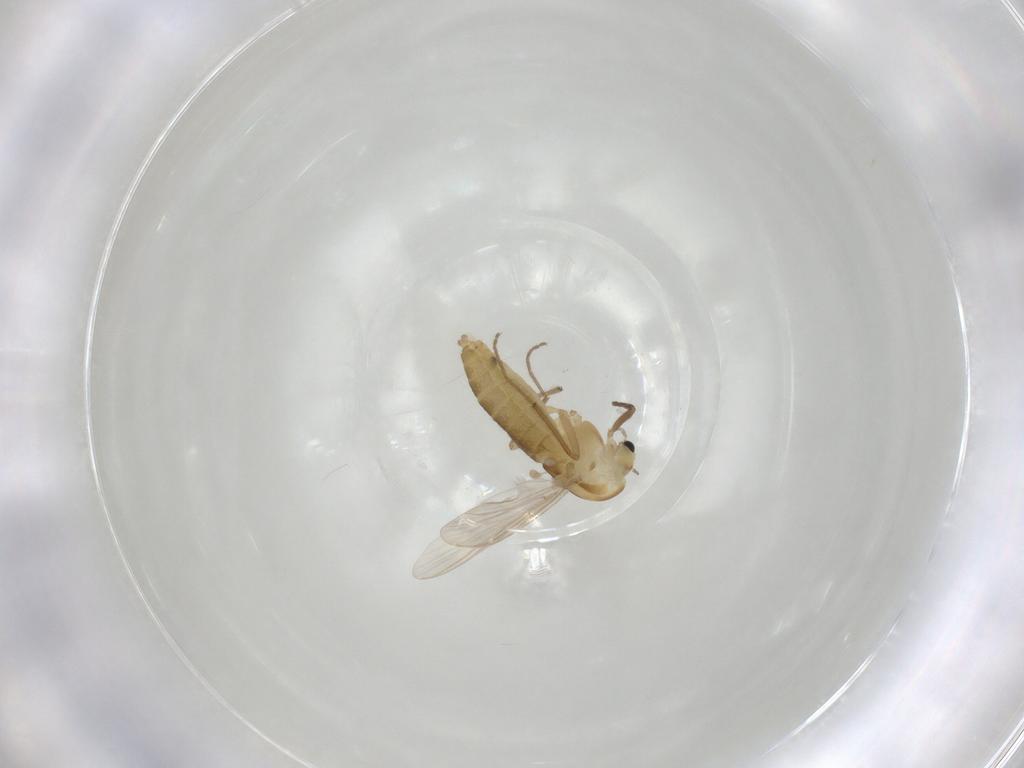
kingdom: Animalia
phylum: Arthropoda
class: Insecta
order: Diptera
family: Chironomidae
